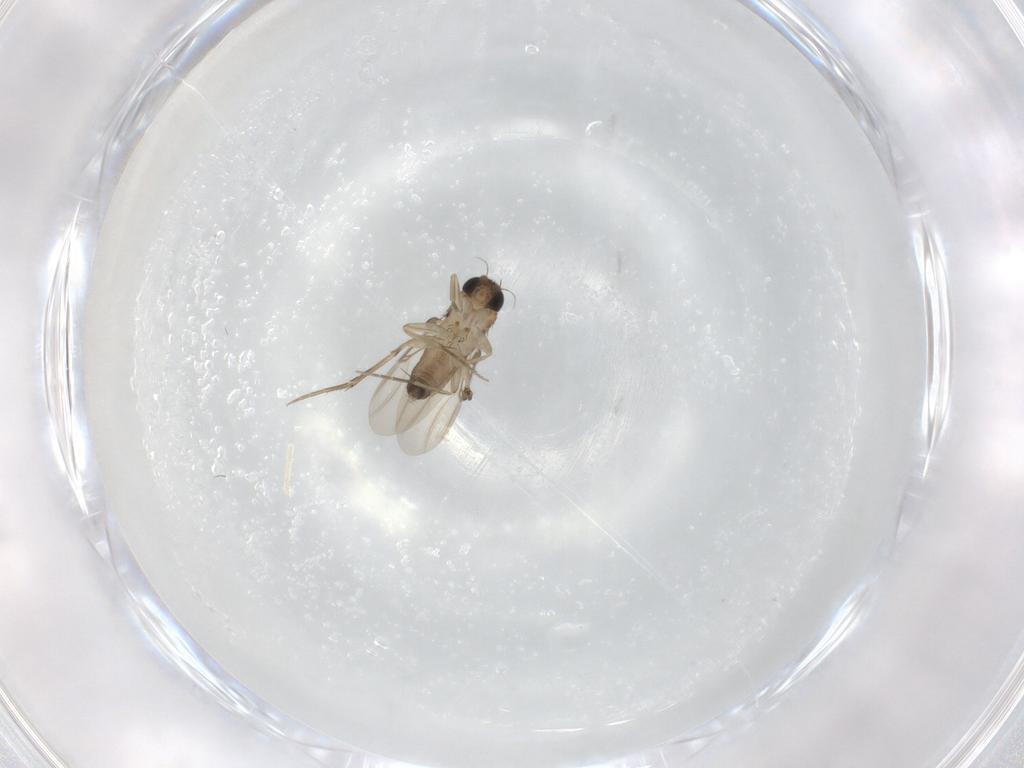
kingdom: Animalia
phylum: Arthropoda
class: Insecta
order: Diptera
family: Phoridae
